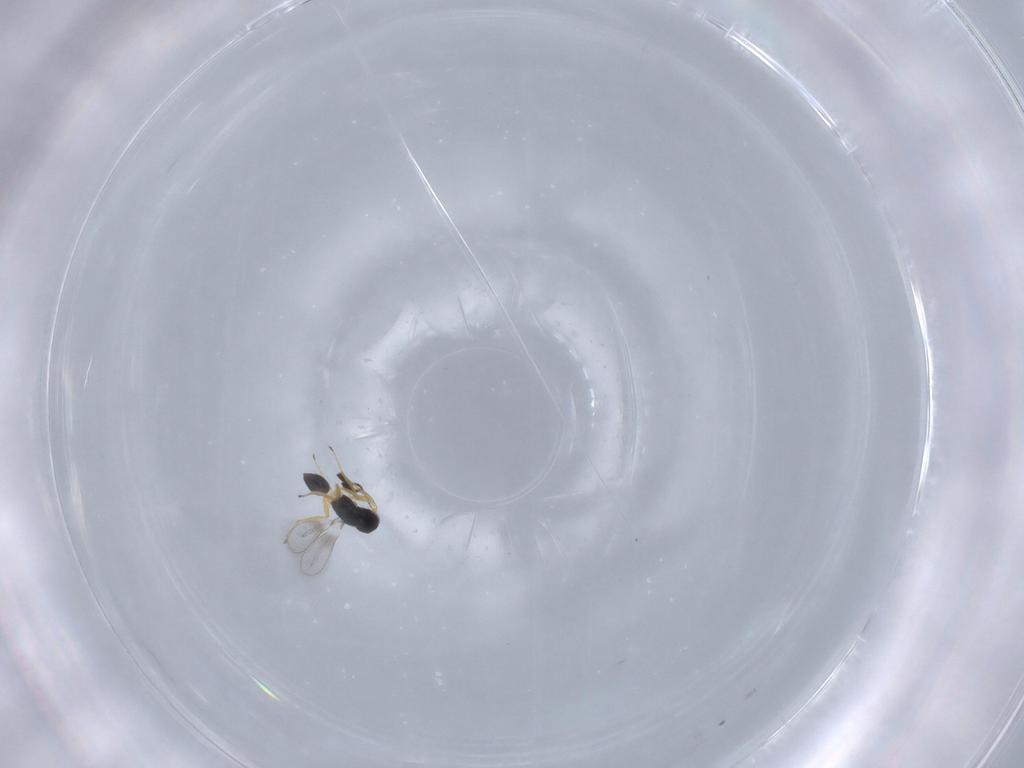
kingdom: Animalia
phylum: Arthropoda
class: Insecta
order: Hymenoptera
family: Mymaridae
